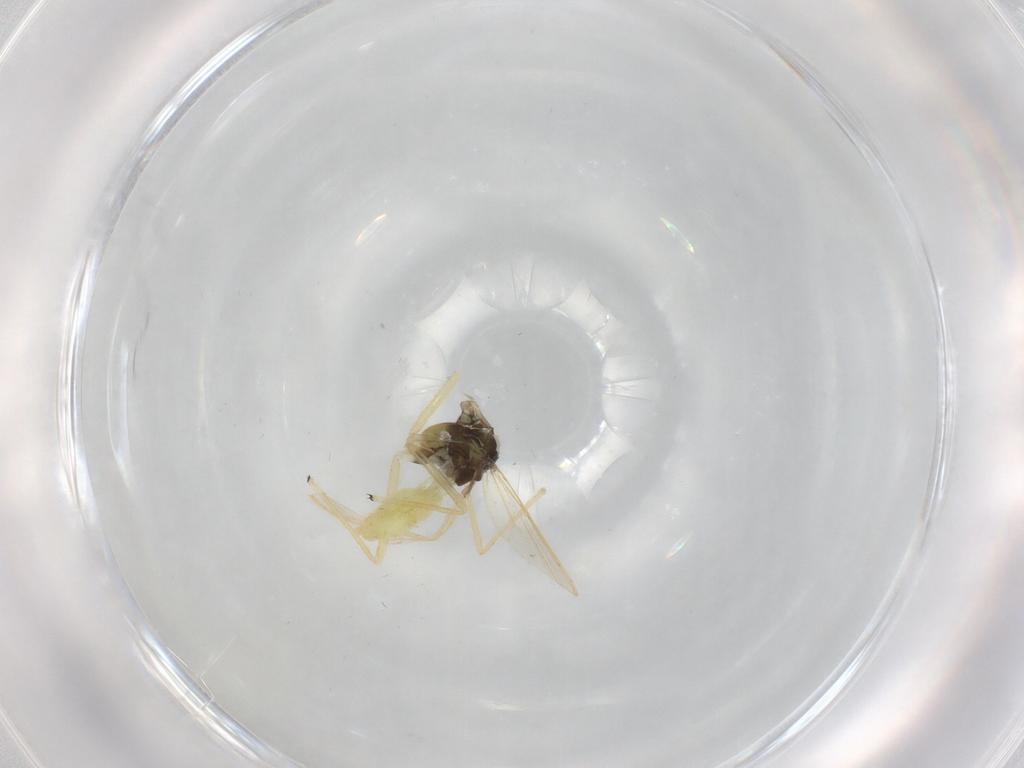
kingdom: Animalia
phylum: Arthropoda
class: Insecta
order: Diptera
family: Chironomidae
